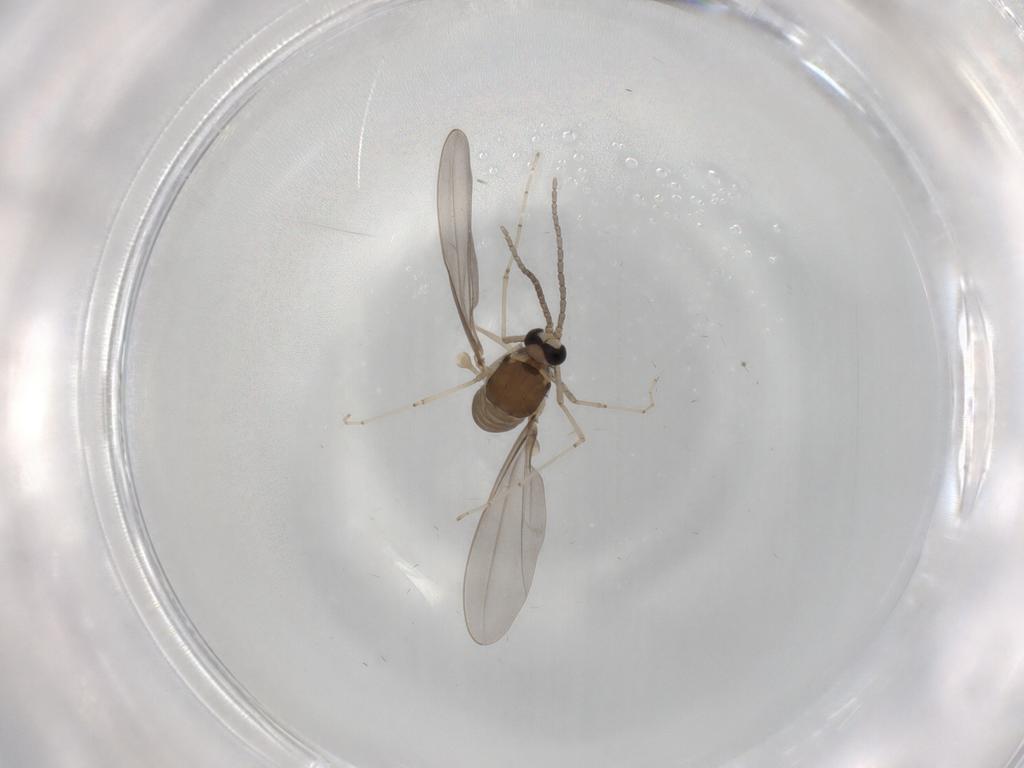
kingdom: Animalia
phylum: Arthropoda
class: Insecta
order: Diptera
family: Cecidomyiidae
